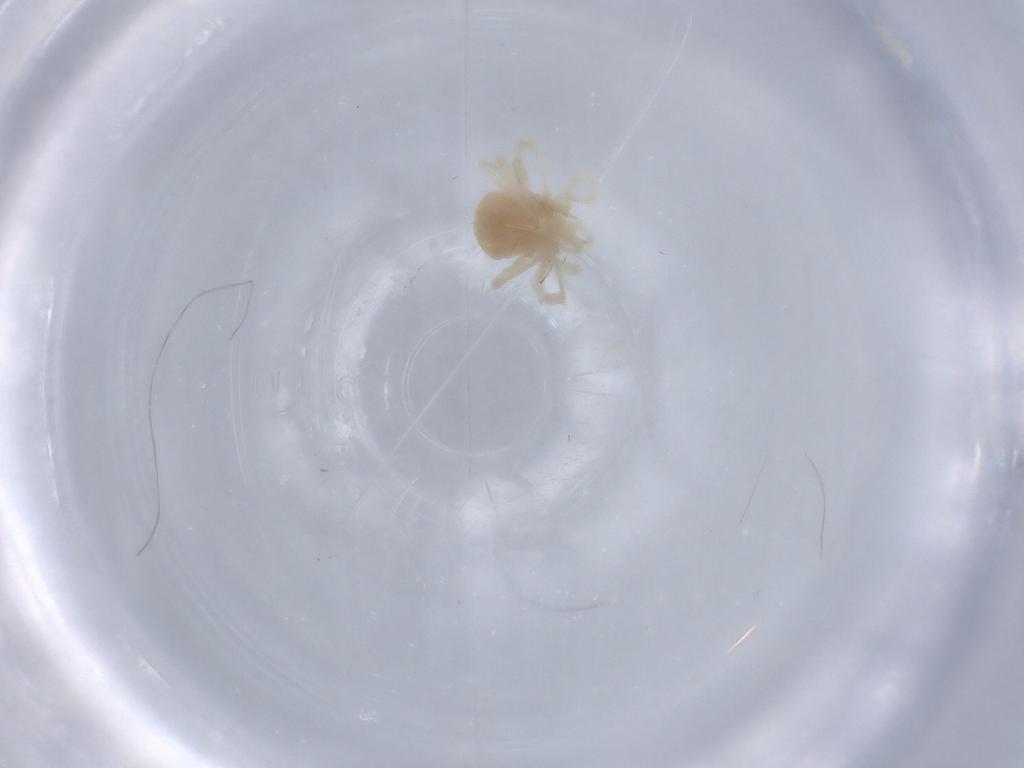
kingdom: Animalia
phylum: Arthropoda
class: Arachnida
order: Trombidiformes
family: Anystidae
